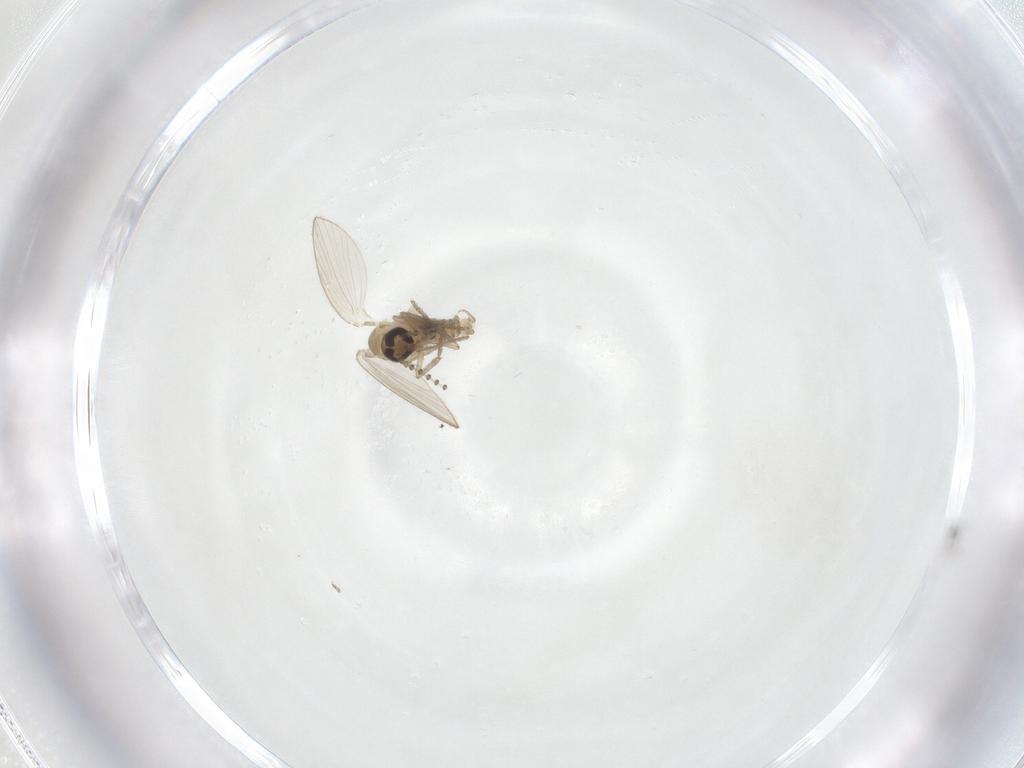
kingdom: Animalia
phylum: Arthropoda
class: Insecta
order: Diptera
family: Psychodidae
